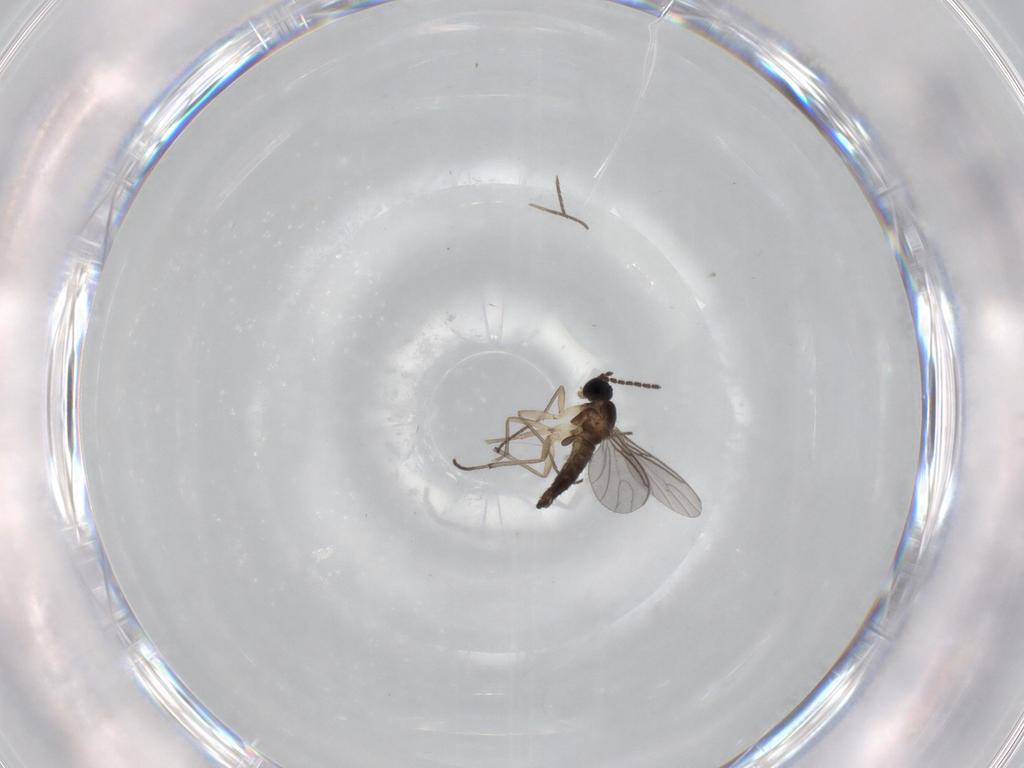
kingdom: Animalia
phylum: Arthropoda
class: Insecta
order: Diptera
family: Sciaridae
